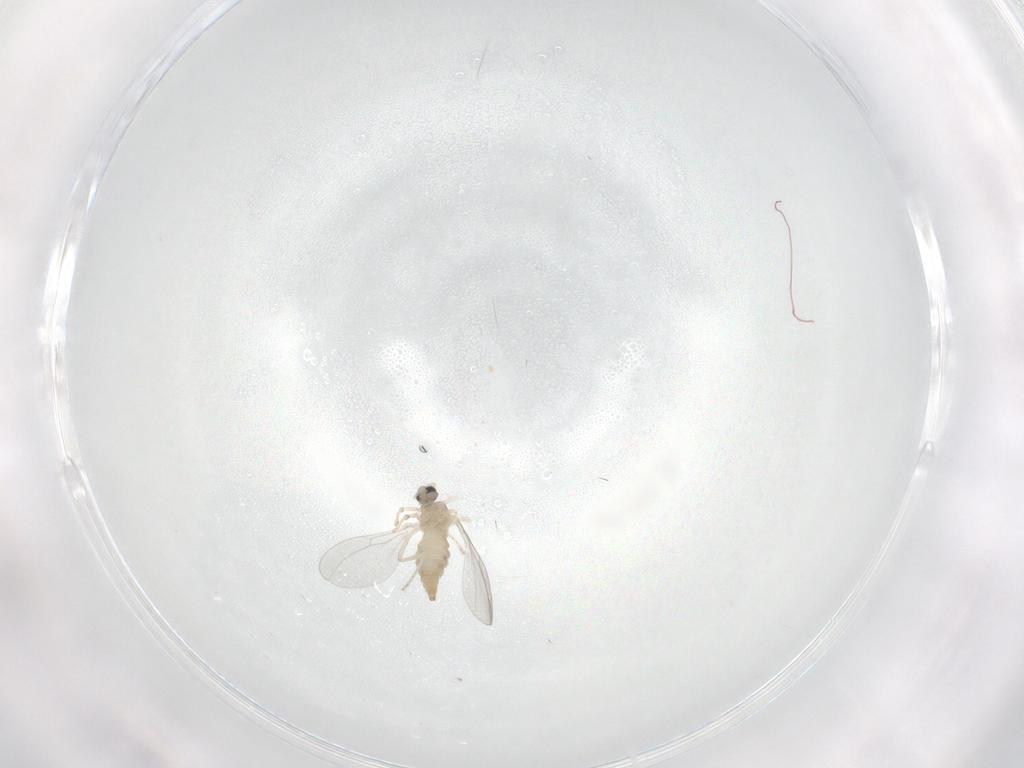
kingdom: Animalia
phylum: Arthropoda
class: Insecta
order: Diptera
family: Chironomidae
